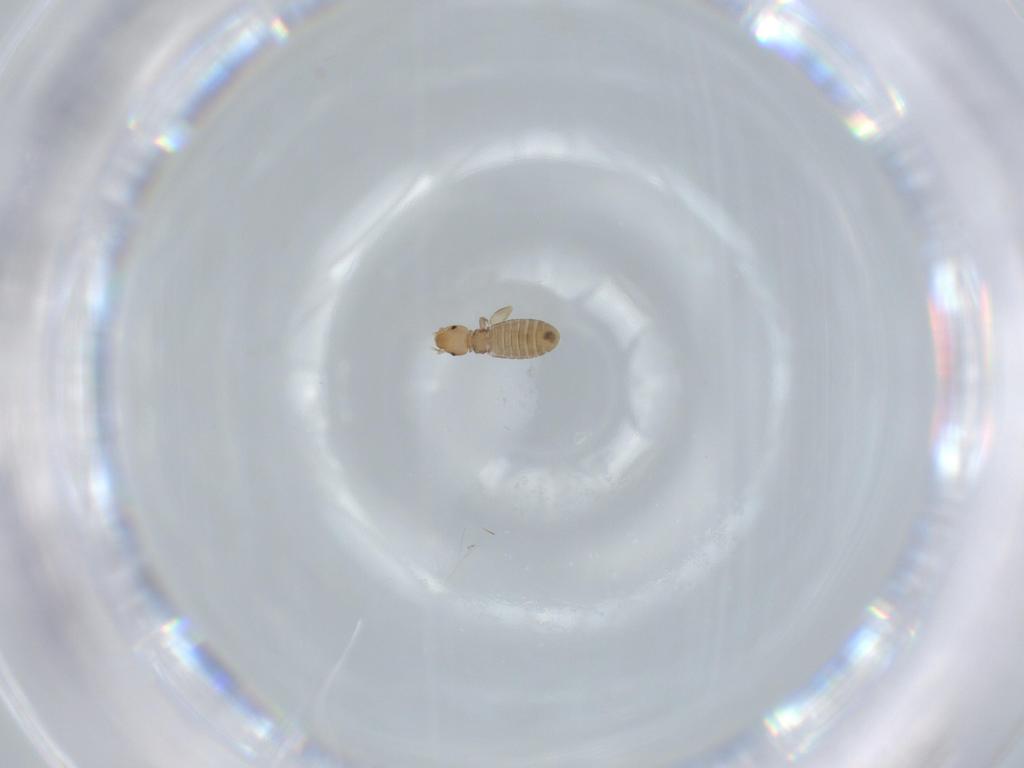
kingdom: Animalia
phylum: Arthropoda
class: Insecta
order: Psocodea
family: Liposcelididae
